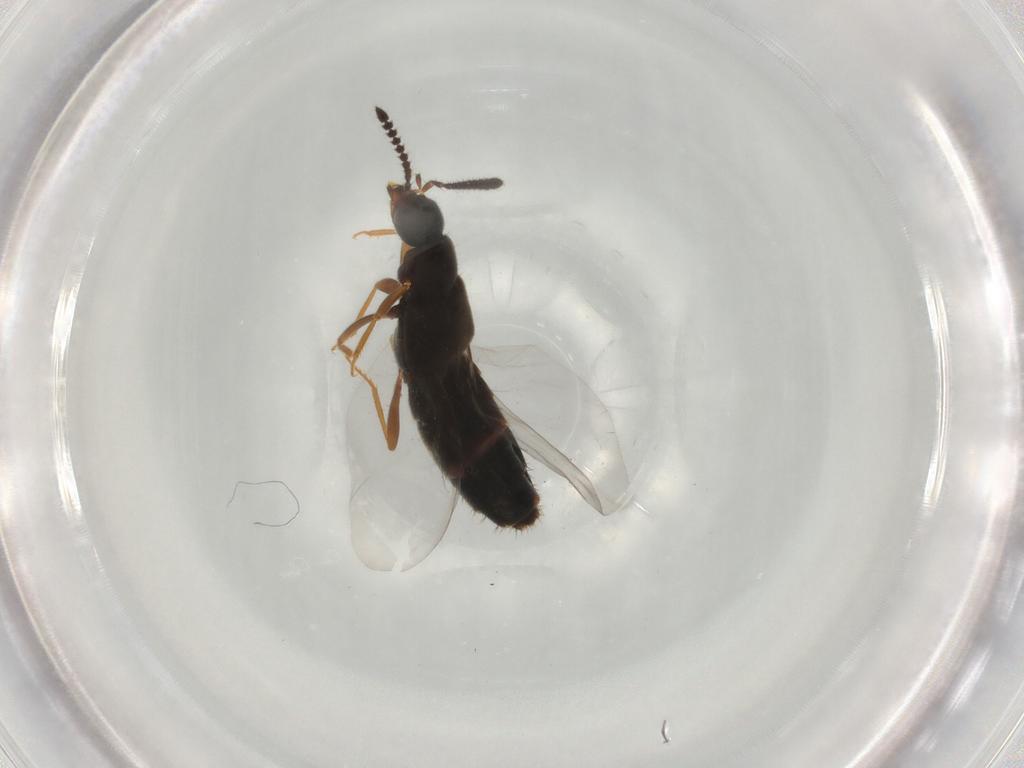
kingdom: Animalia
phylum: Arthropoda
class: Insecta
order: Coleoptera
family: Staphylinidae
